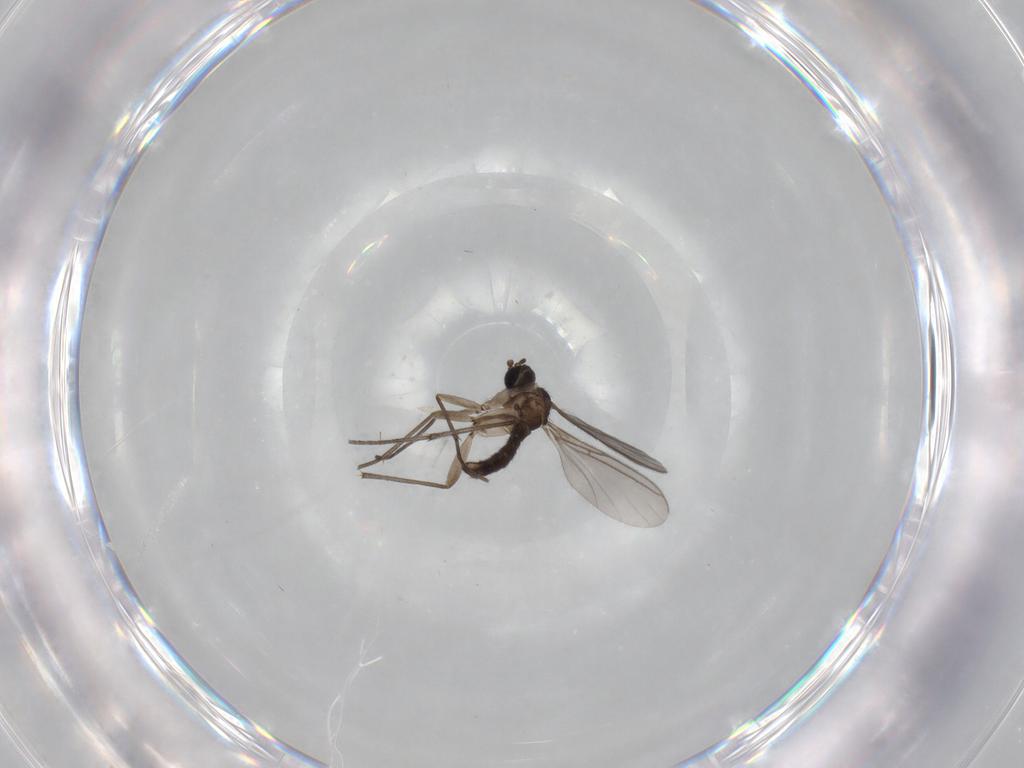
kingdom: Animalia
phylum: Arthropoda
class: Insecta
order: Diptera
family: Sciaridae
